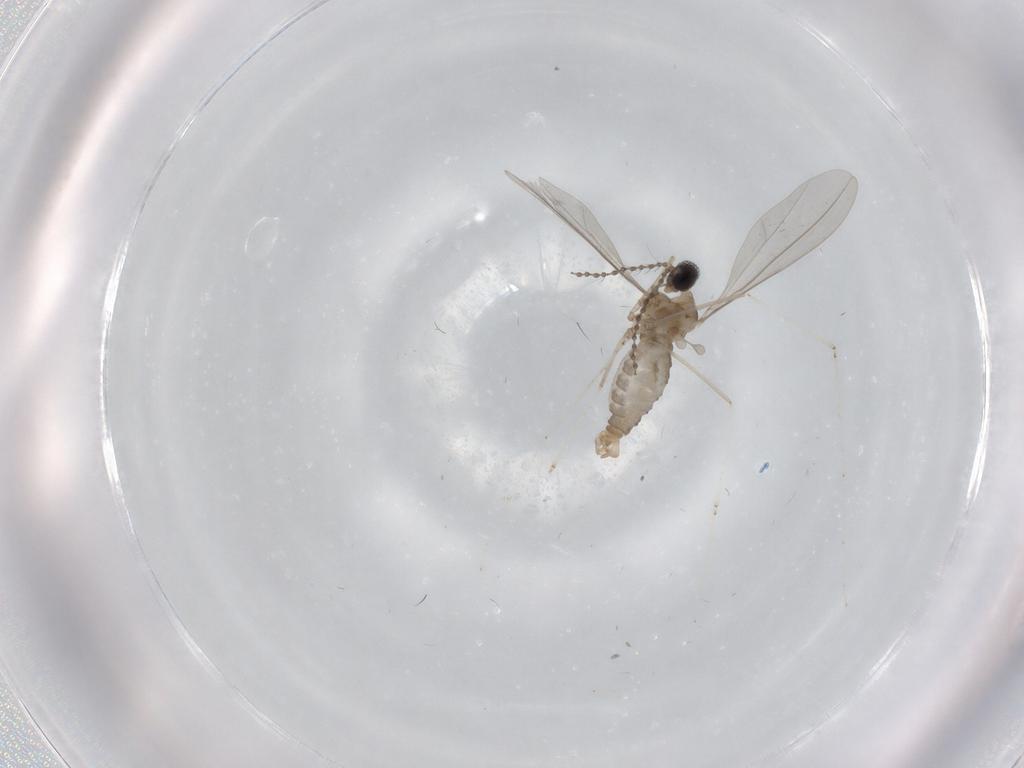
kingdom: Animalia
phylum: Arthropoda
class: Insecta
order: Diptera
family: Cecidomyiidae
